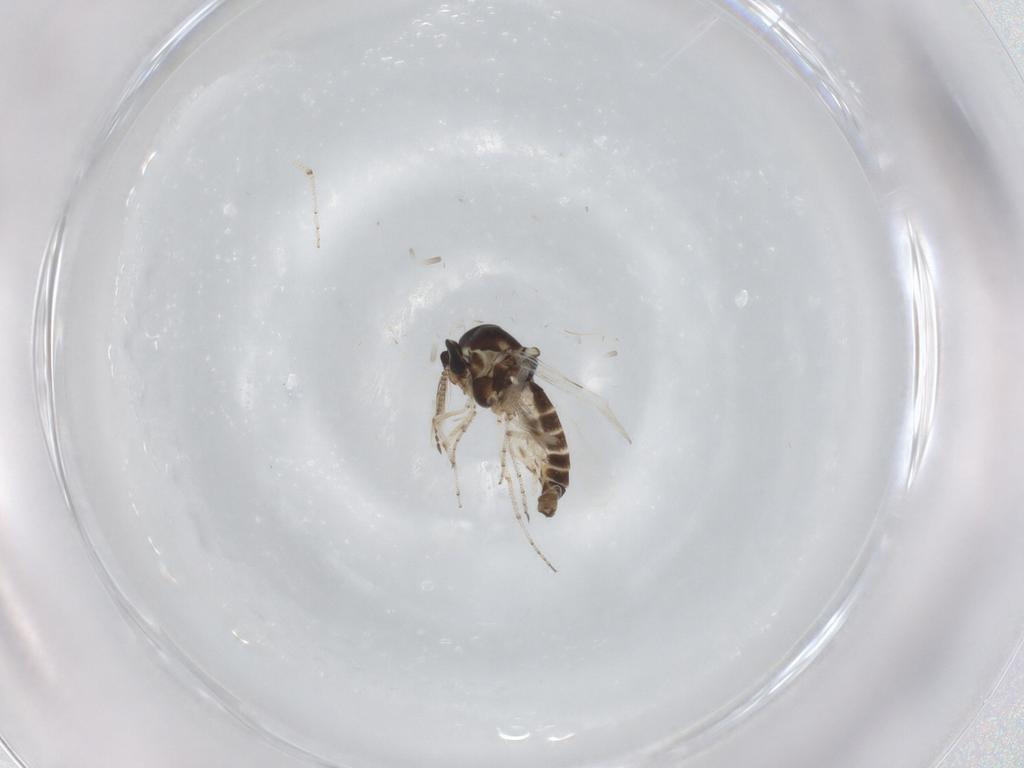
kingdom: Animalia
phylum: Arthropoda
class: Insecta
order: Diptera
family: Ceratopogonidae
